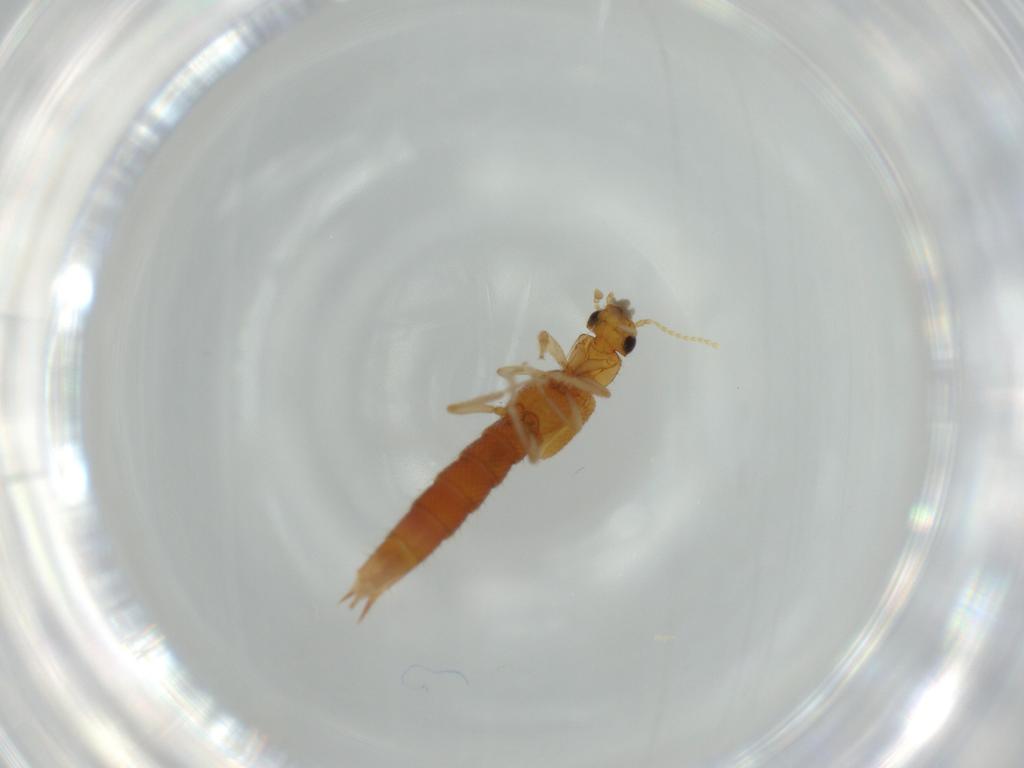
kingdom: Animalia
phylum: Arthropoda
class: Insecta
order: Coleoptera
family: Staphylinidae
